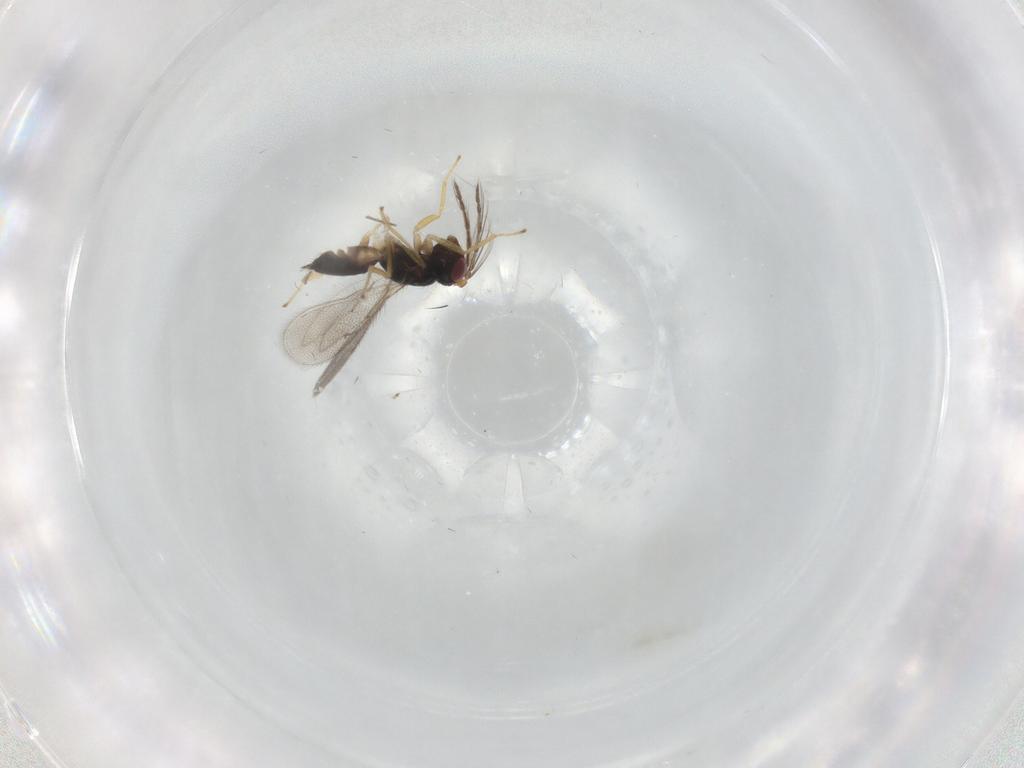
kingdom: Animalia
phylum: Arthropoda
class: Insecta
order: Hymenoptera
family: Eulophidae
